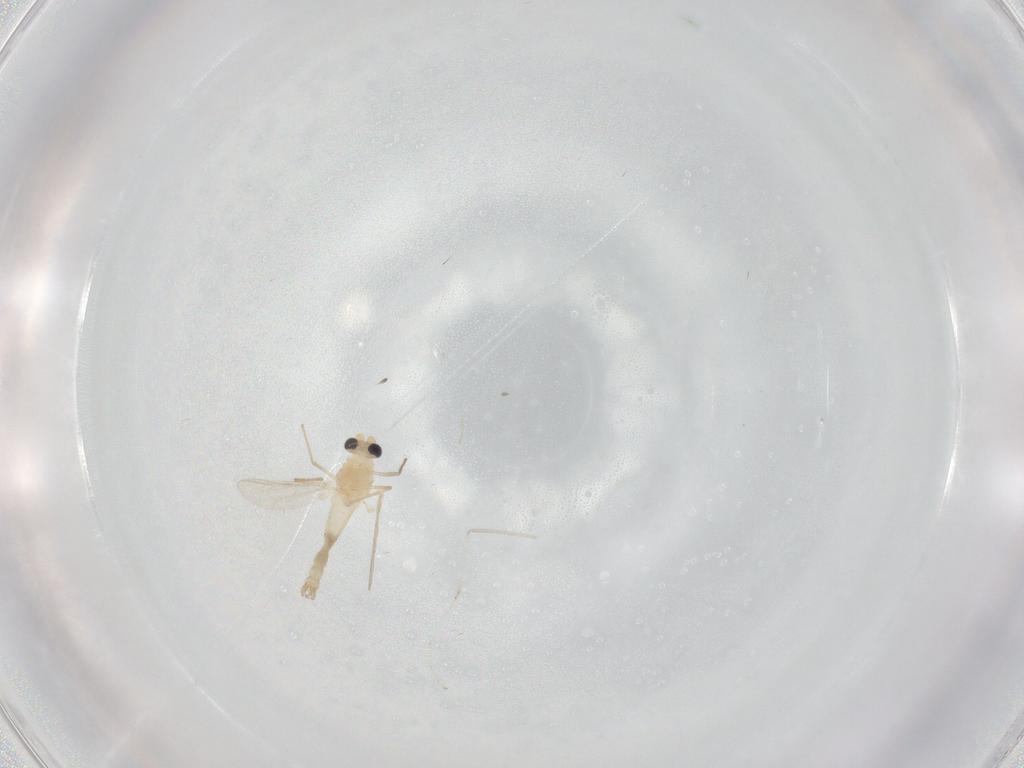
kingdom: Animalia
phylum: Arthropoda
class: Insecta
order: Diptera
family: Chironomidae
